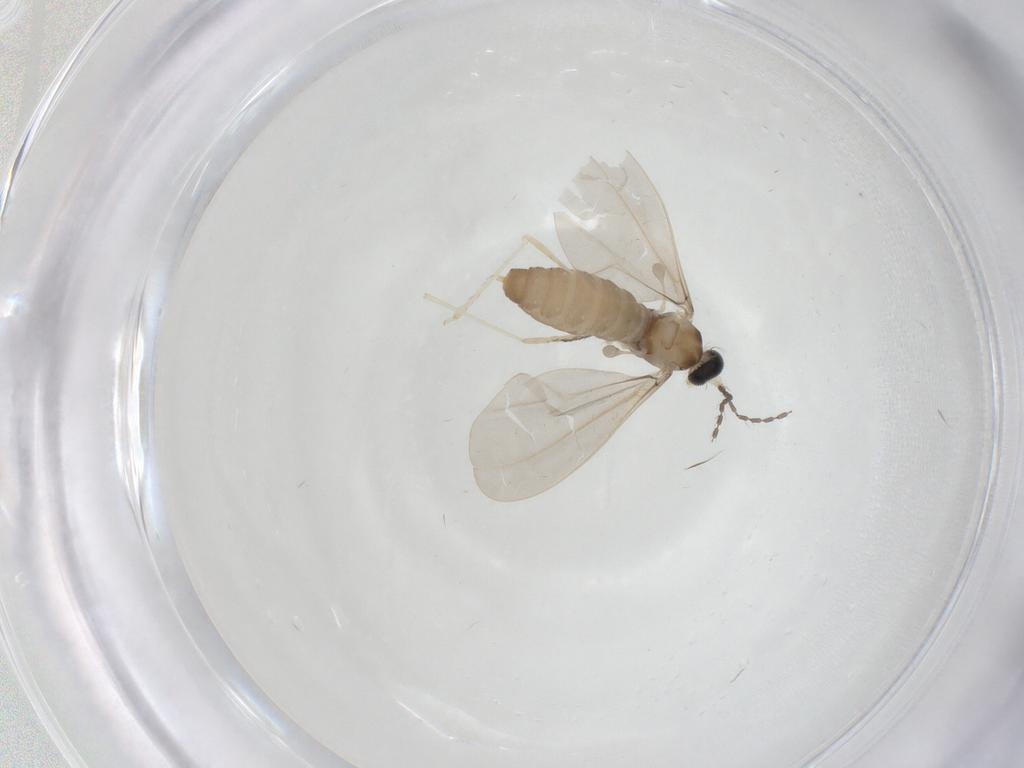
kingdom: Animalia
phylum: Arthropoda
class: Insecta
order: Diptera
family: Cecidomyiidae
